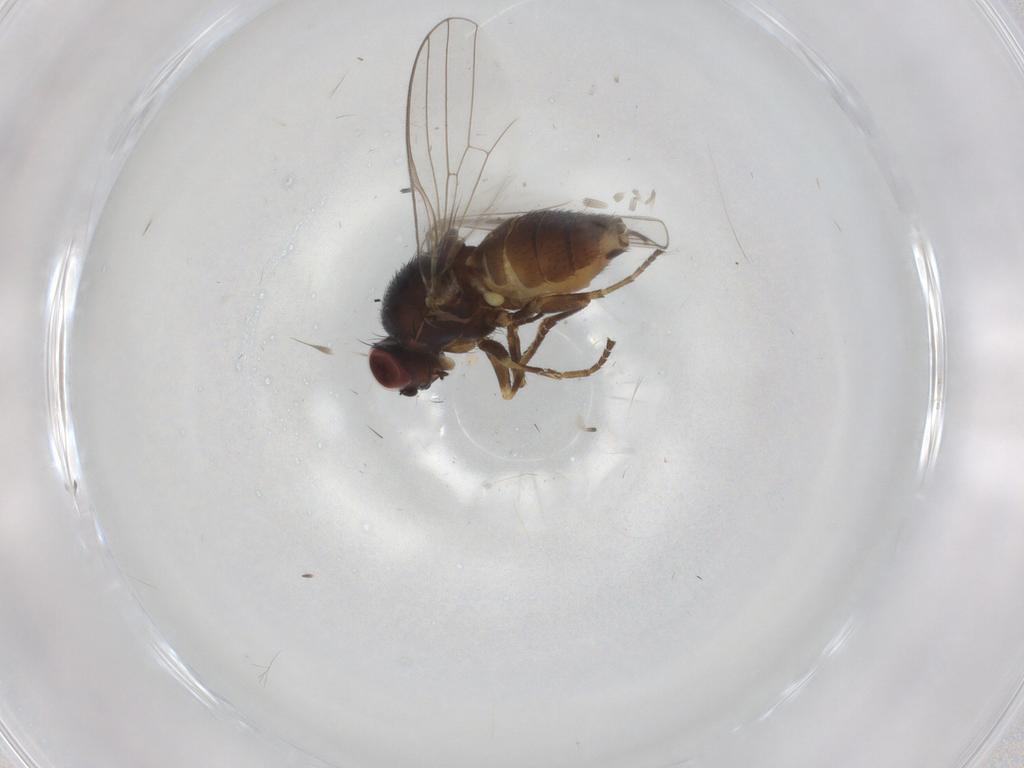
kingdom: Animalia
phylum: Arthropoda
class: Insecta
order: Diptera
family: Chamaemyiidae
